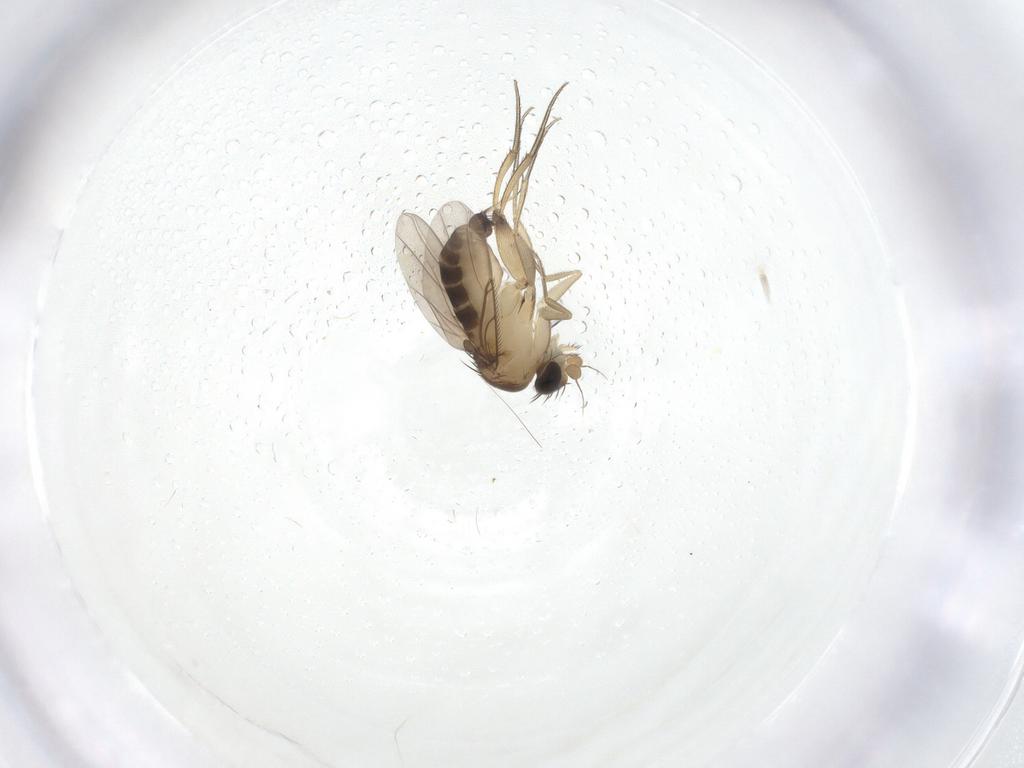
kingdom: Animalia
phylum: Arthropoda
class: Insecta
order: Diptera
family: Phoridae
